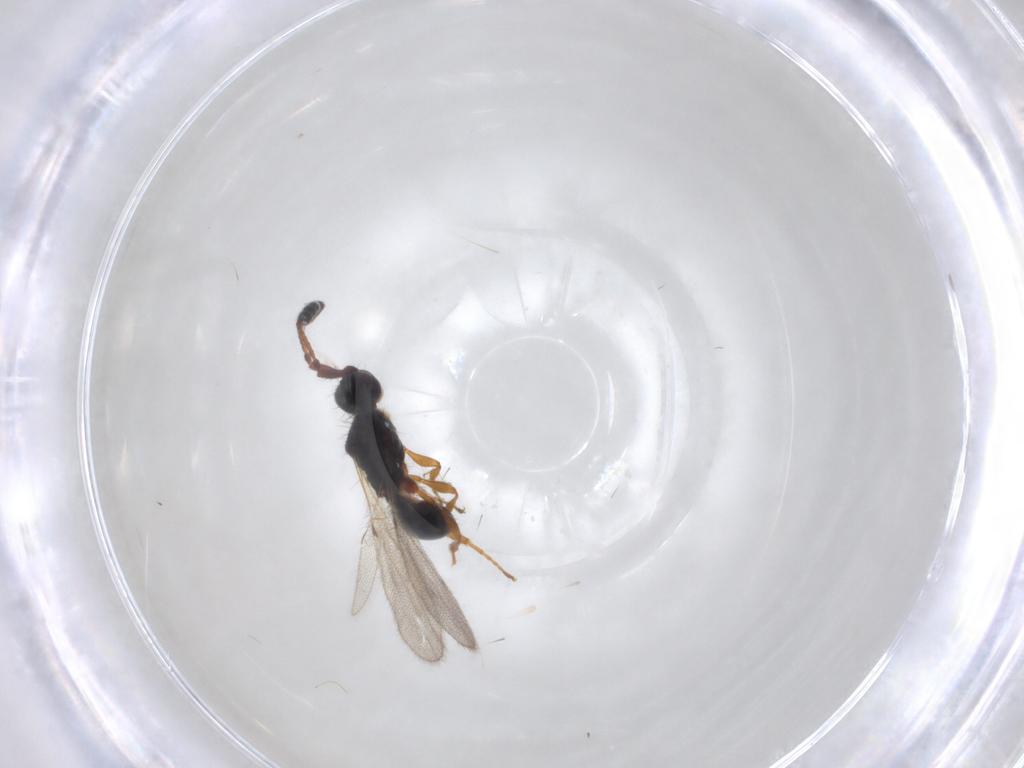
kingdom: Animalia
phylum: Arthropoda
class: Insecta
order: Hymenoptera
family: Diapriidae
